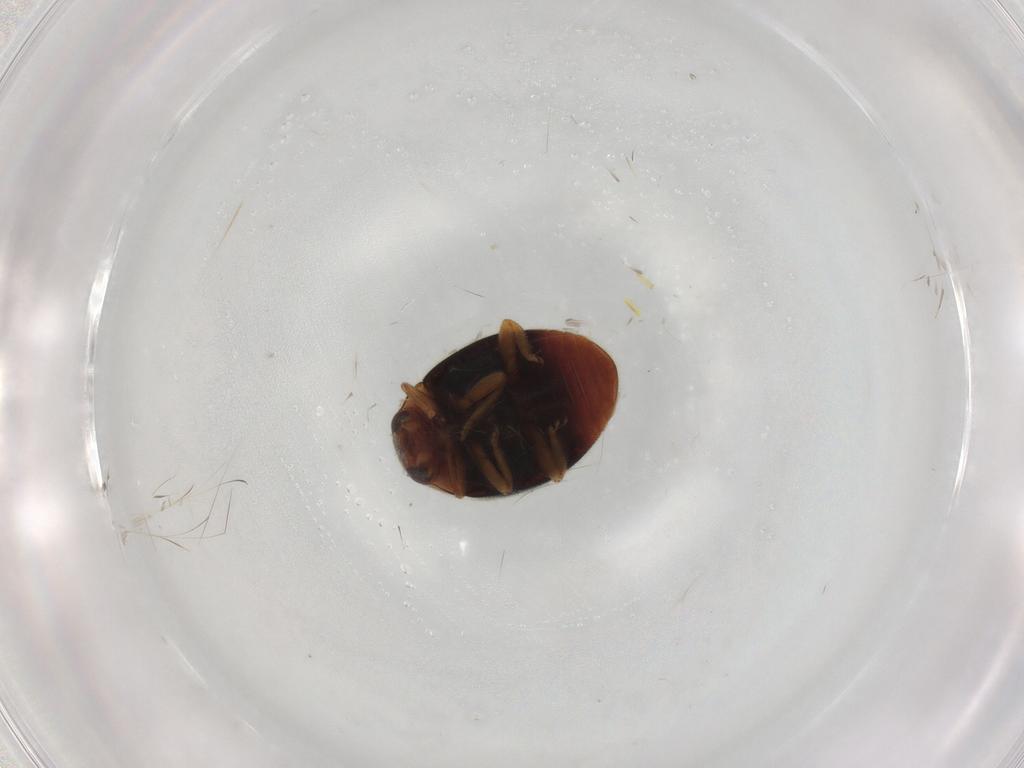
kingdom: Animalia
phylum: Arthropoda
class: Insecta
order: Coleoptera
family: Coccinellidae
